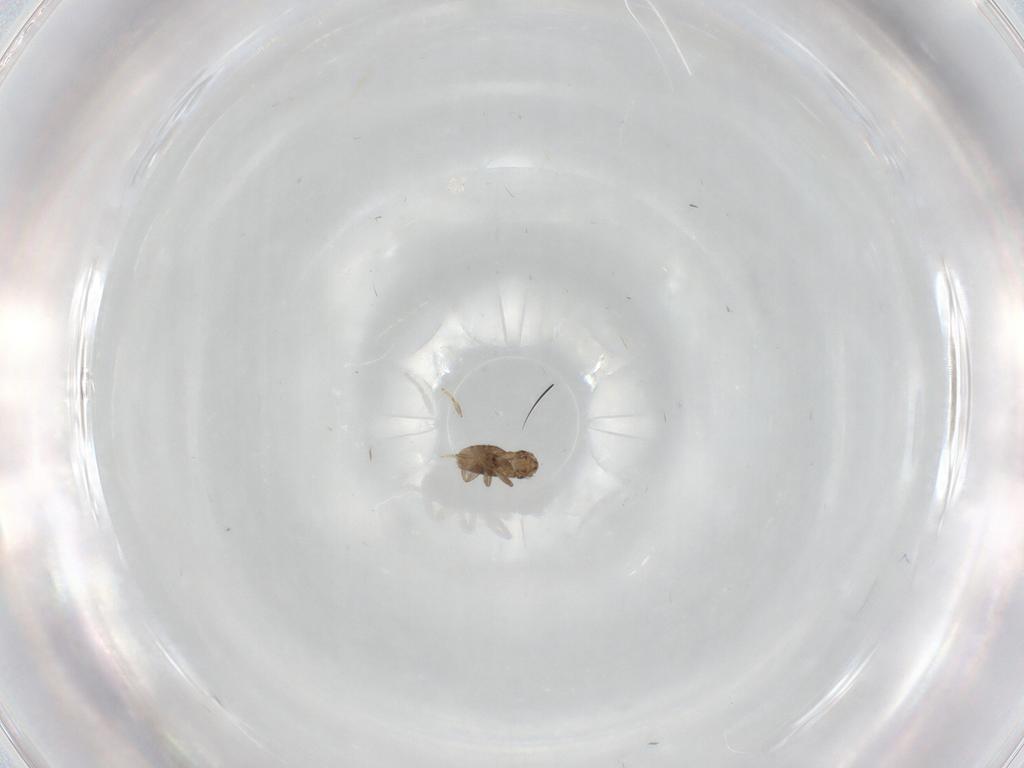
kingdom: Animalia
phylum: Arthropoda
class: Insecta
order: Diptera
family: Phoridae
